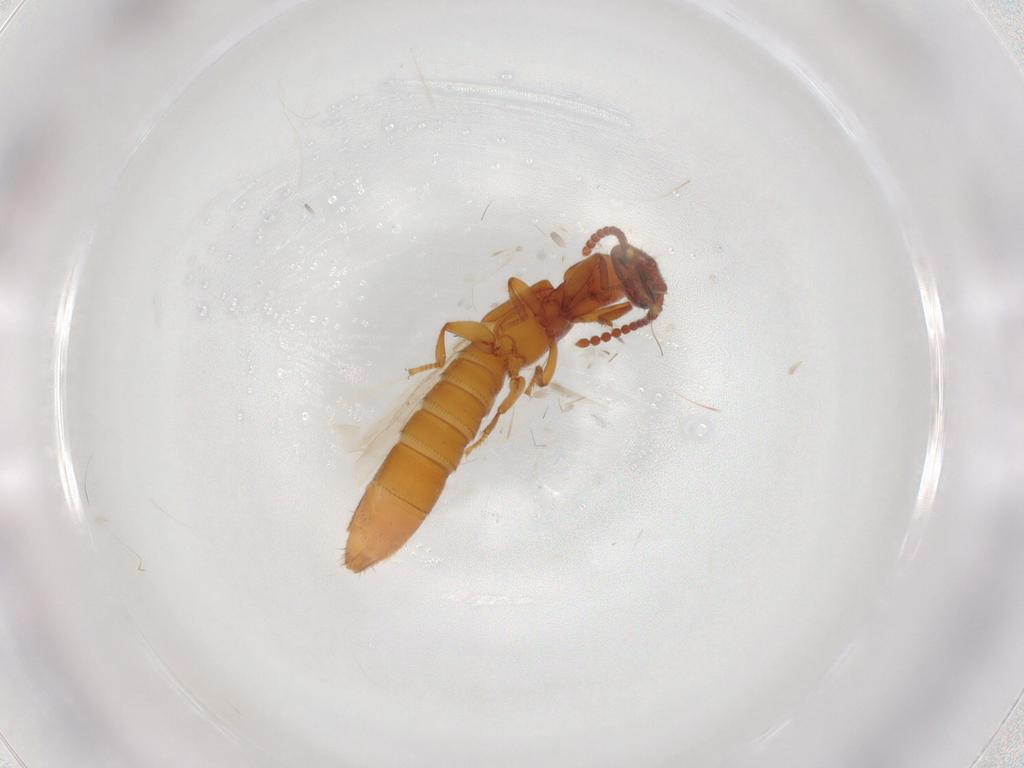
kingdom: Animalia
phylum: Arthropoda
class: Insecta
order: Coleoptera
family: Staphylinidae
